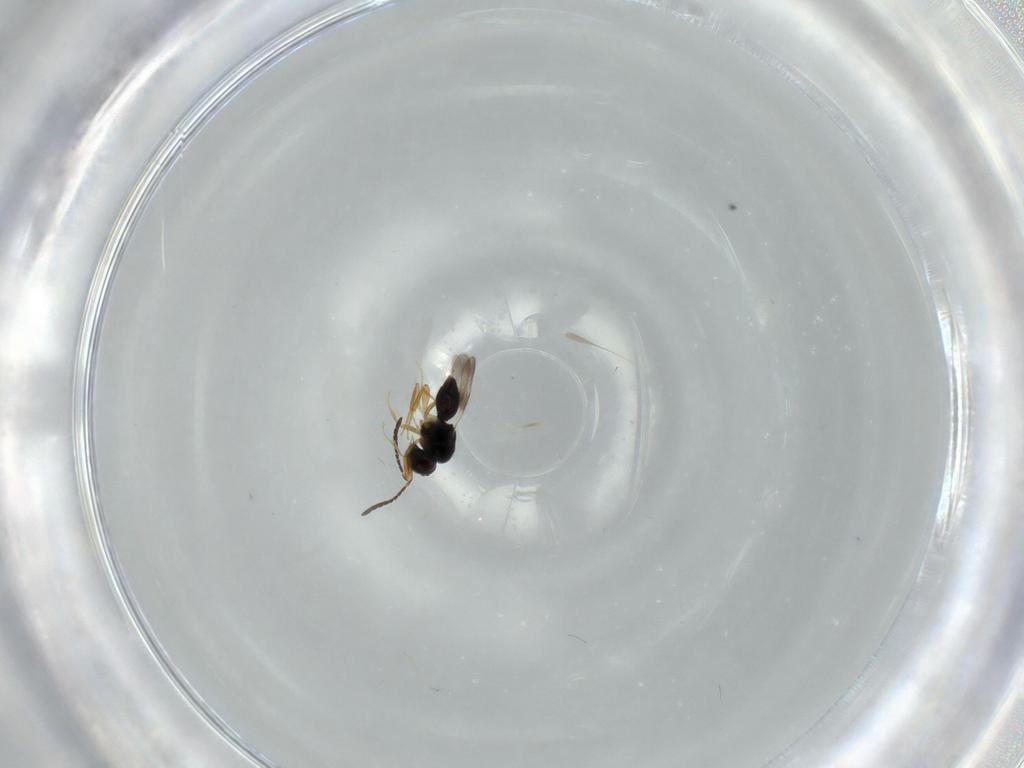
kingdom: Animalia
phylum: Arthropoda
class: Insecta
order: Hymenoptera
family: Ceraphronidae
